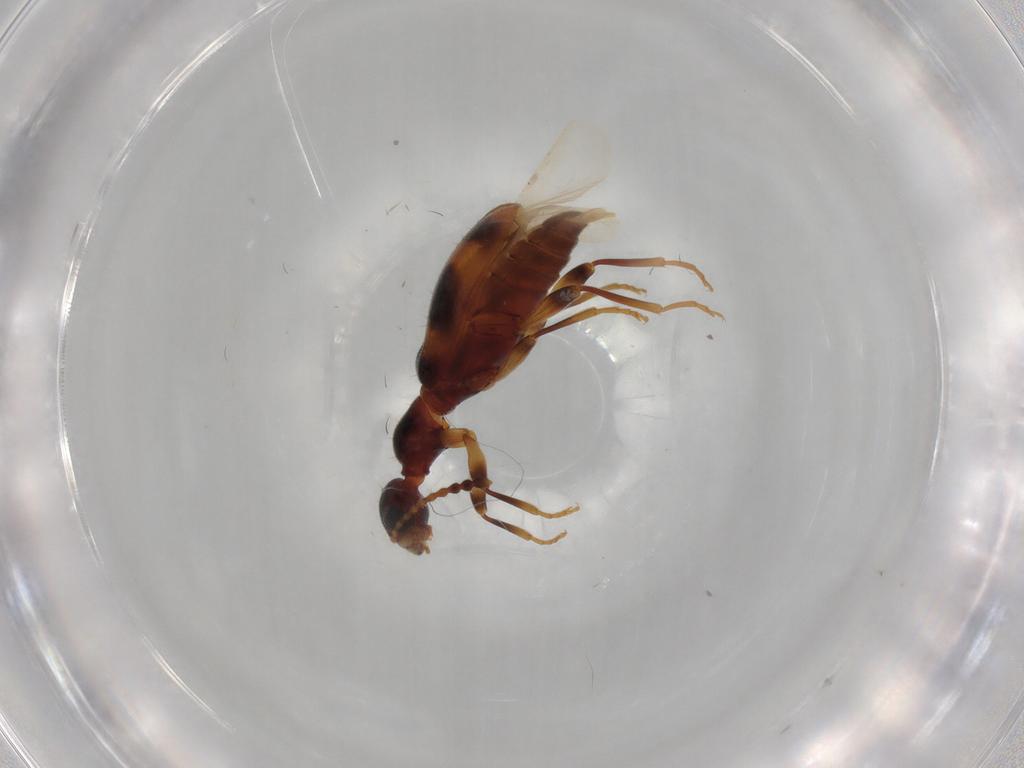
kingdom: Animalia
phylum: Arthropoda
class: Insecta
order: Coleoptera
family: Anthicidae
